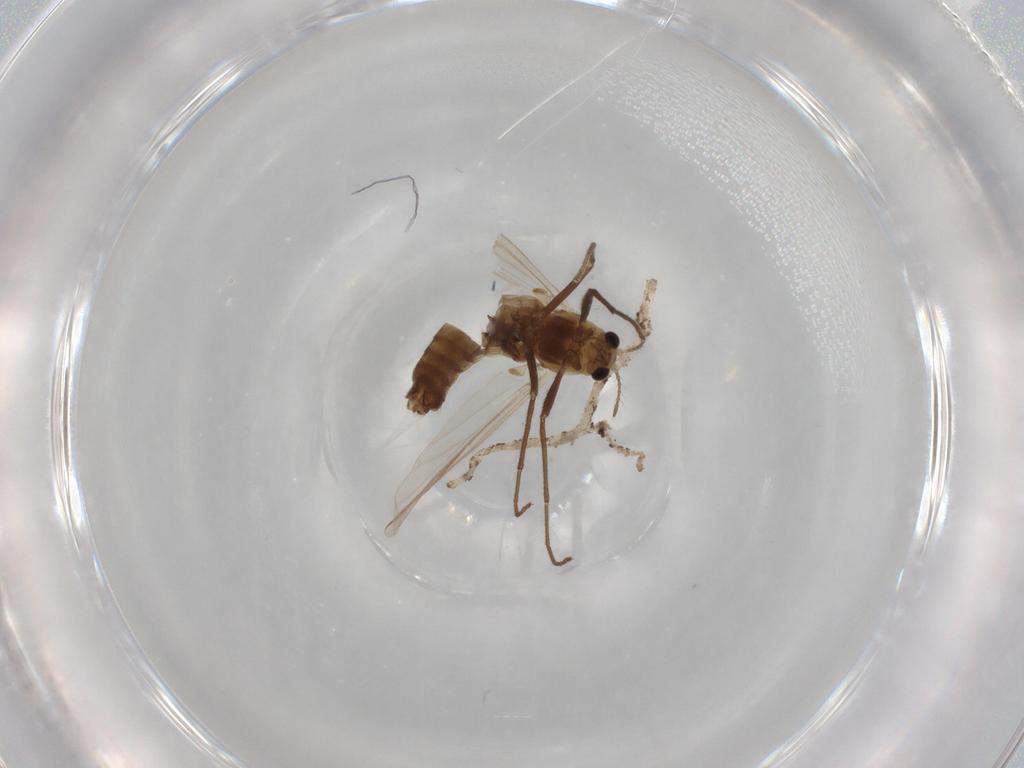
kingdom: Animalia
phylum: Arthropoda
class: Insecta
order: Diptera
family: Chironomidae
